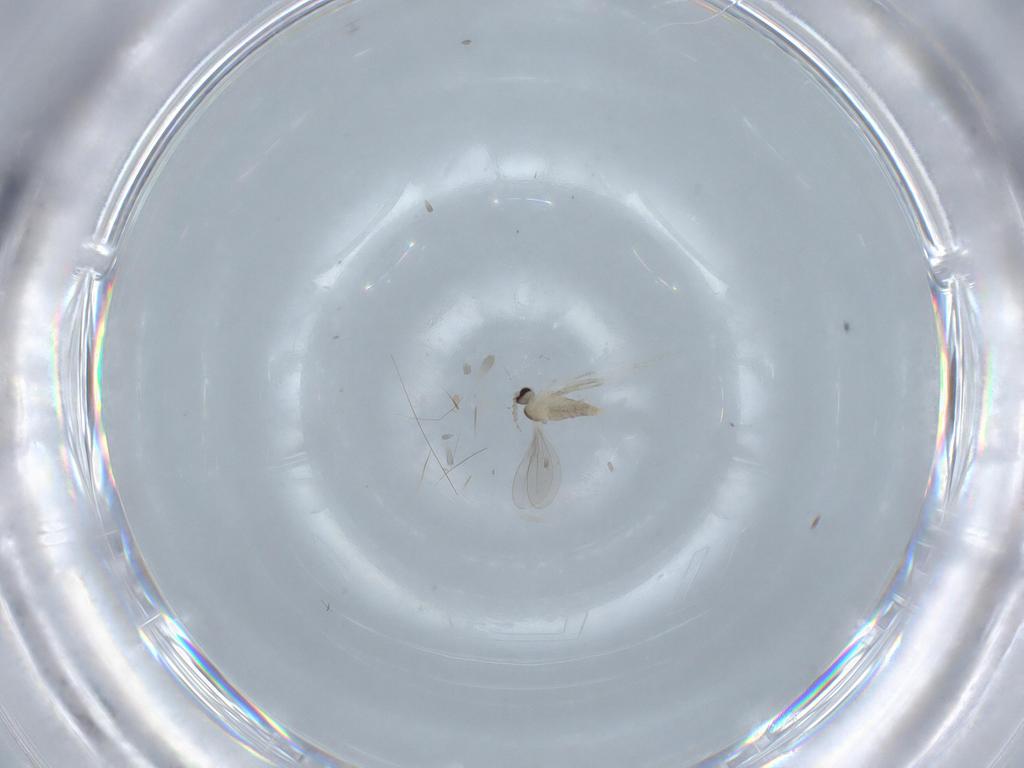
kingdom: Animalia
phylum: Arthropoda
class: Insecta
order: Diptera
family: Cecidomyiidae
